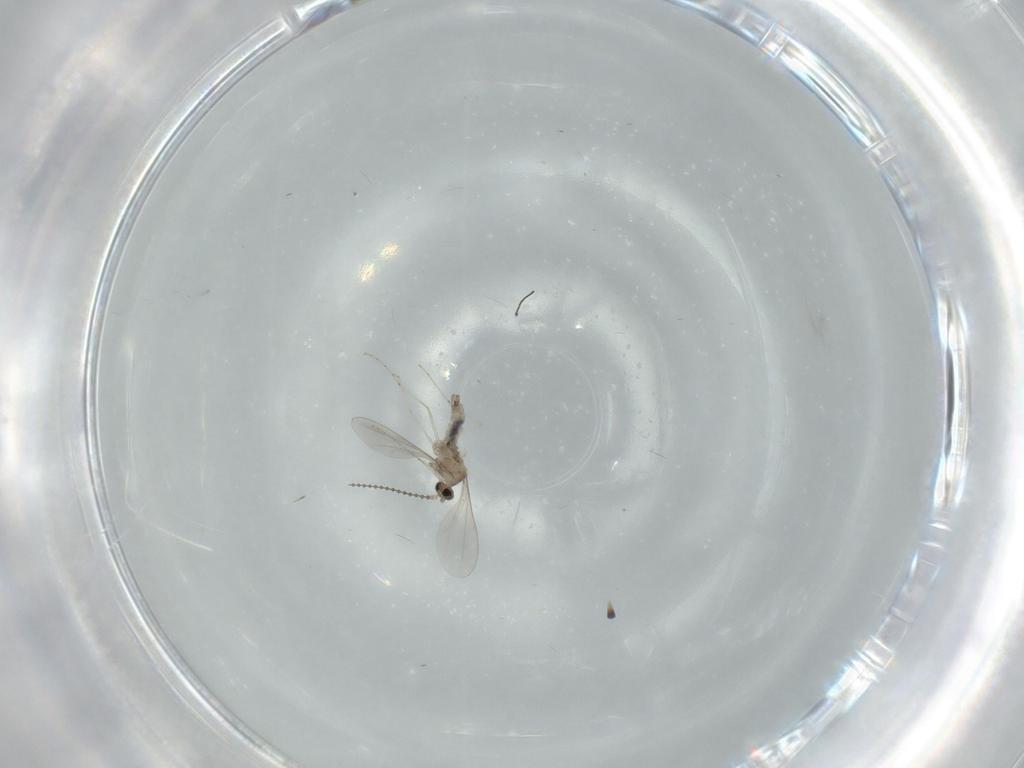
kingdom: Animalia
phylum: Arthropoda
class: Insecta
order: Diptera
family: Cecidomyiidae
